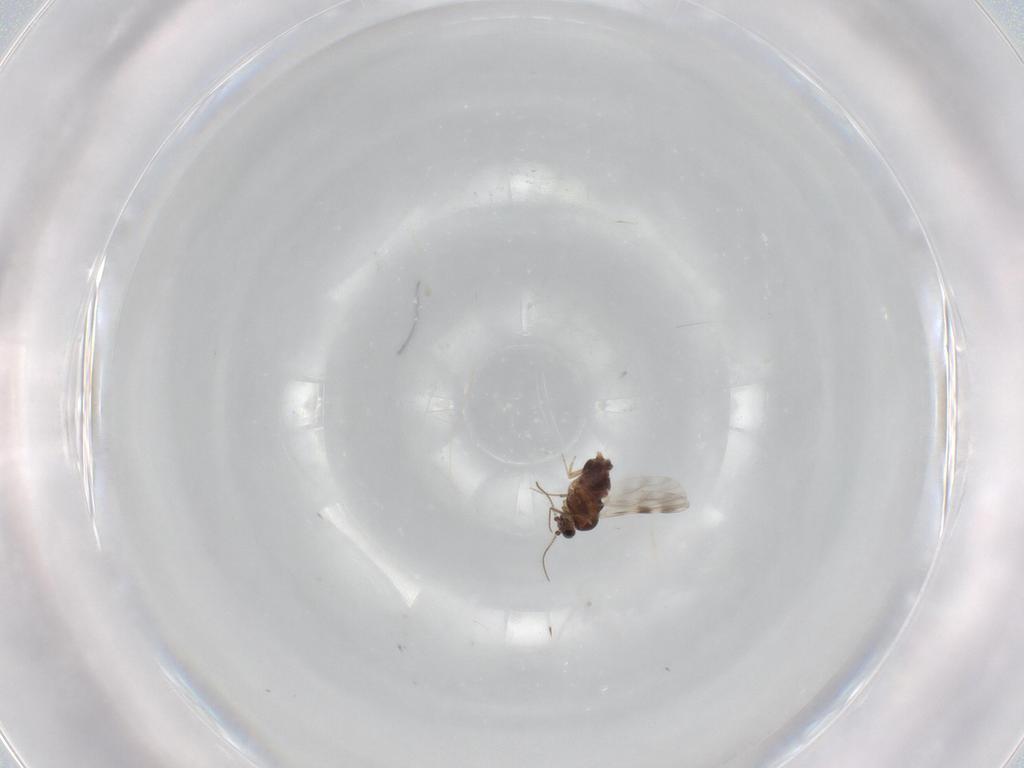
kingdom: Animalia
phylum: Arthropoda
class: Insecta
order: Diptera
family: Ceratopogonidae
